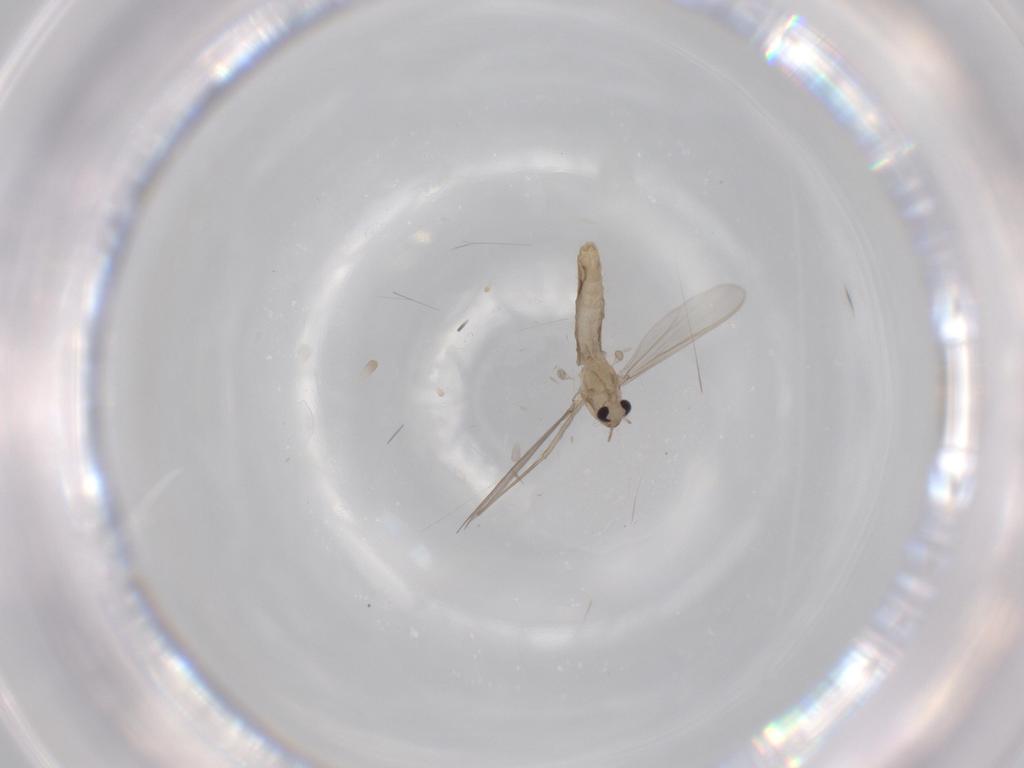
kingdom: Animalia
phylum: Arthropoda
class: Insecta
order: Diptera
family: Chironomidae
